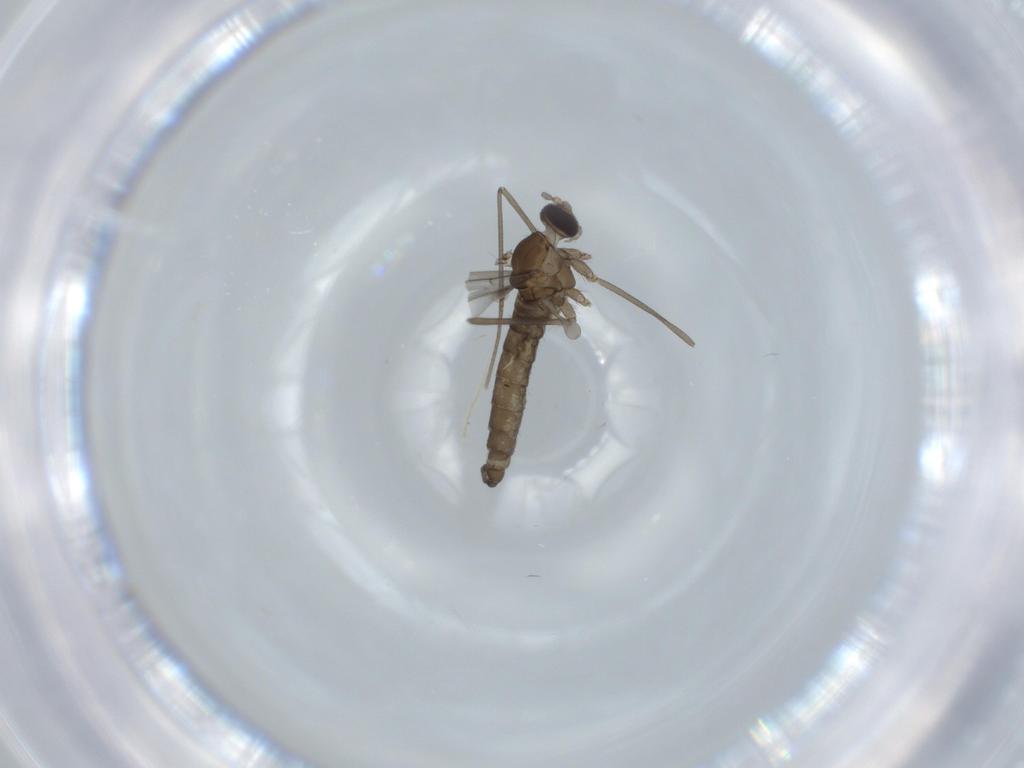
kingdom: Animalia
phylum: Arthropoda
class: Insecta
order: Diptera
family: Cecidomyiidae
